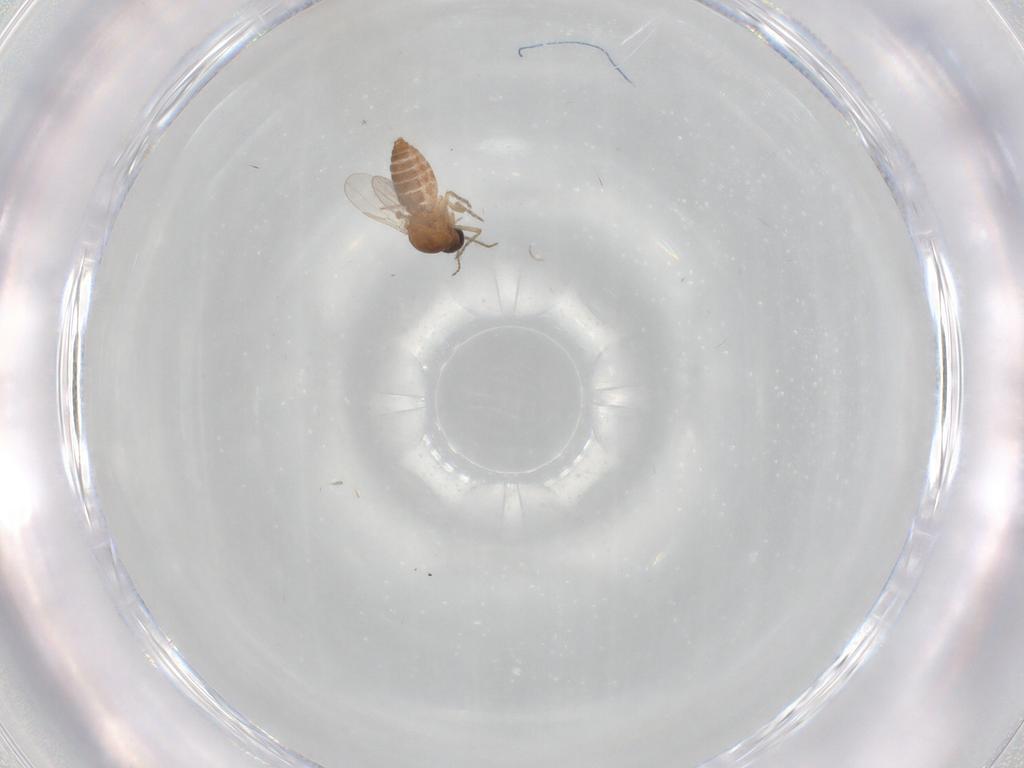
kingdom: Animalia
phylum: Arthropoda
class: Insecta
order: Diptera
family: Ceratopogonidae
